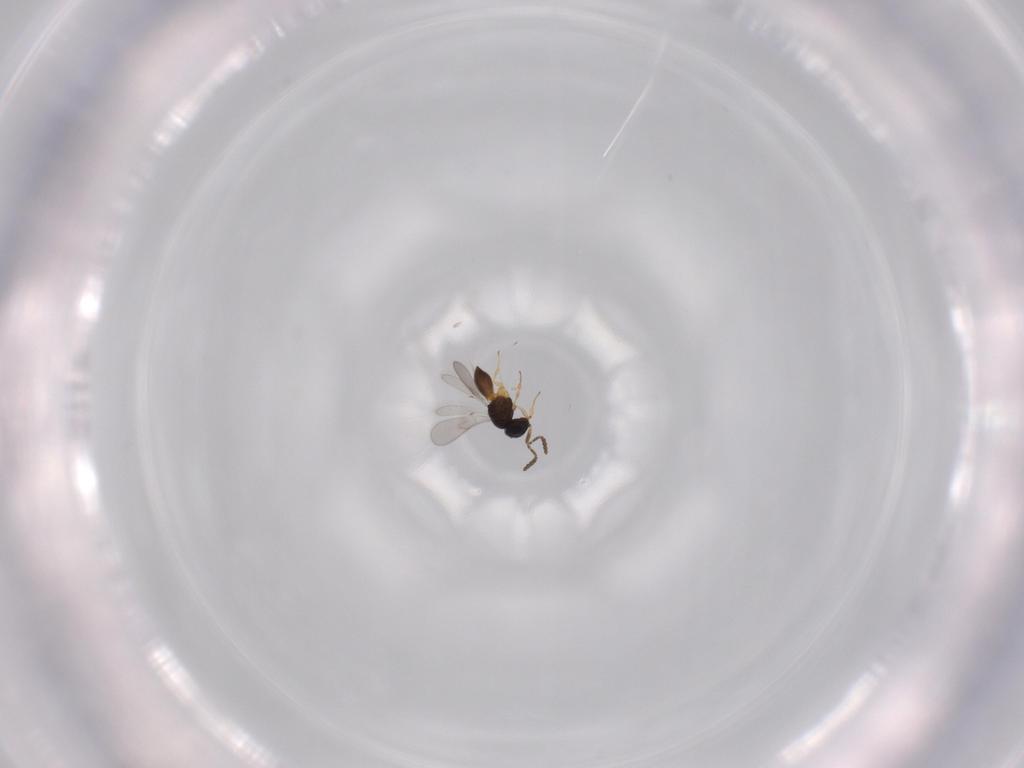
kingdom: Animalia
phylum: Arthropoda
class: Insecta
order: Hymenoptera
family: Scelionidae
